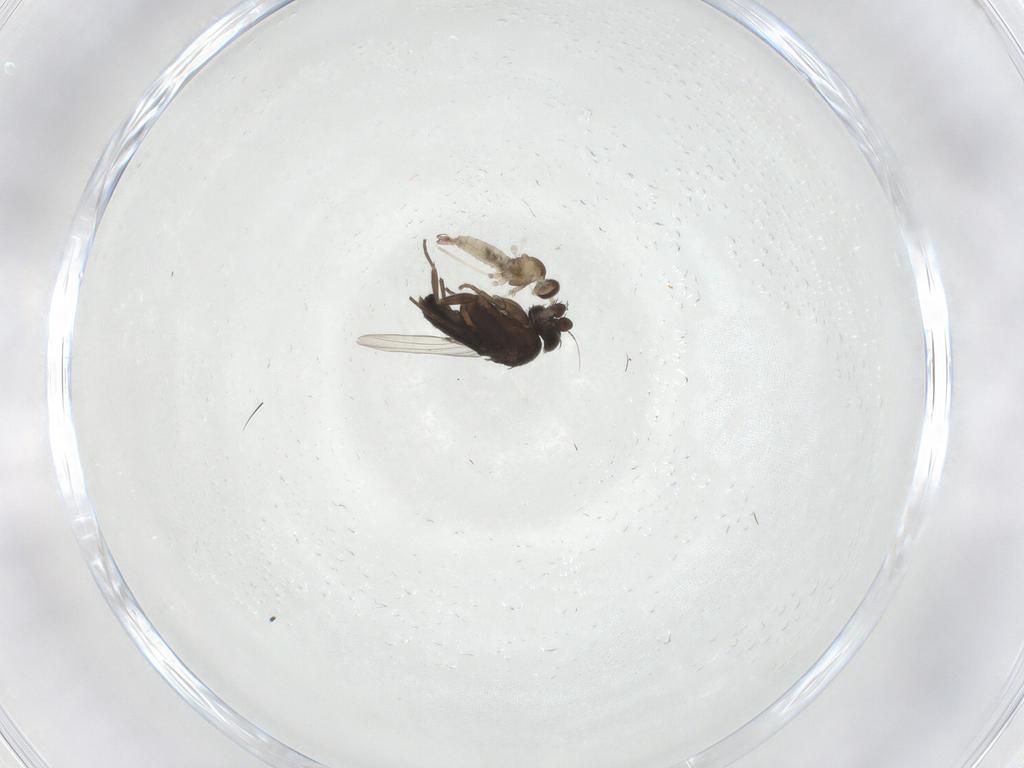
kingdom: Animalia
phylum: Arthropoda
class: Insecta
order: Diptera
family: Cecidomyiidae
